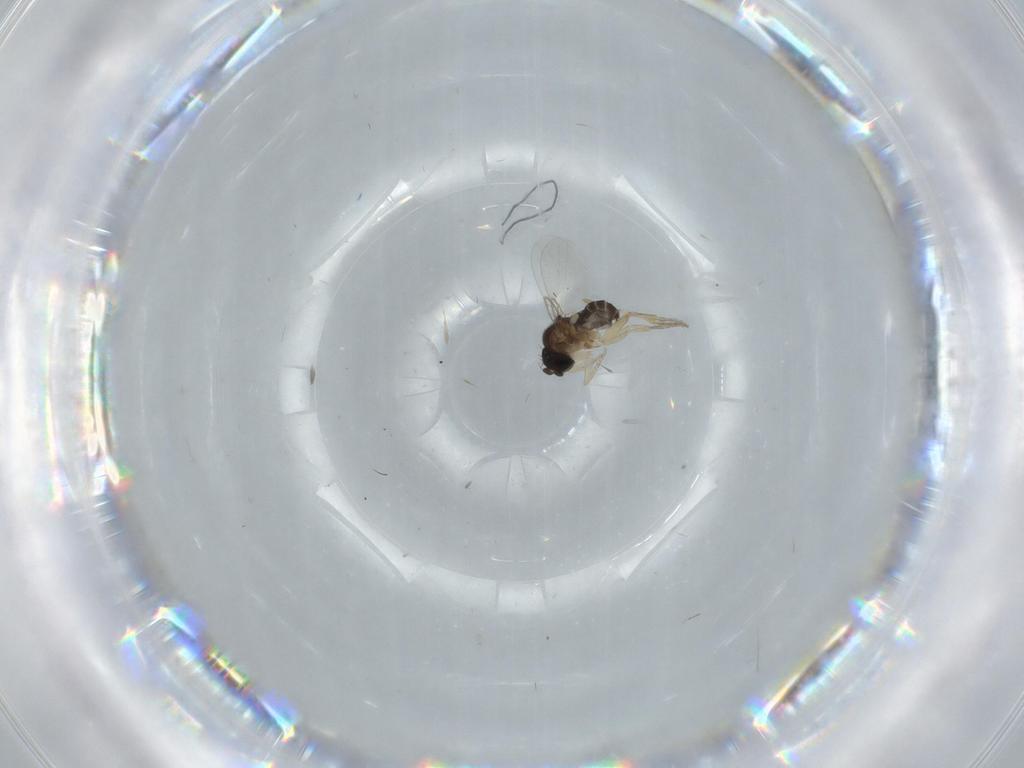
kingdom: Animalia
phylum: Arthropoda
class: Insecta
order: Diptera
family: Phoridae
